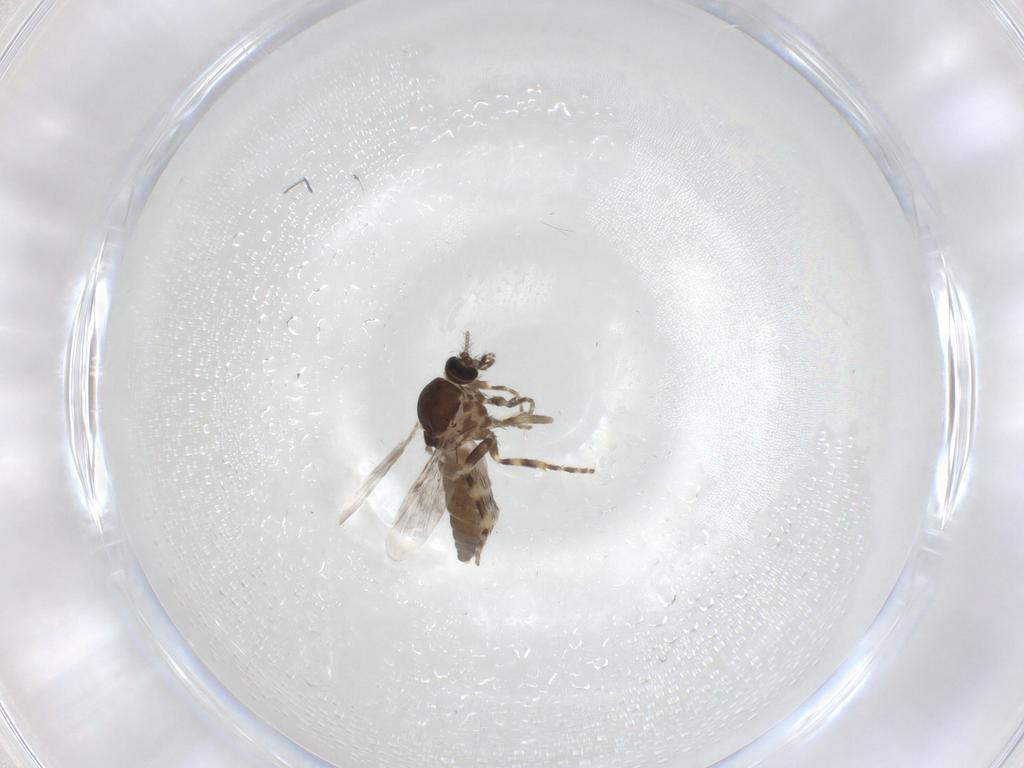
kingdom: Animalia
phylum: Arthropoda
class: Insecta
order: Diptera
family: Ceratopogonidae
